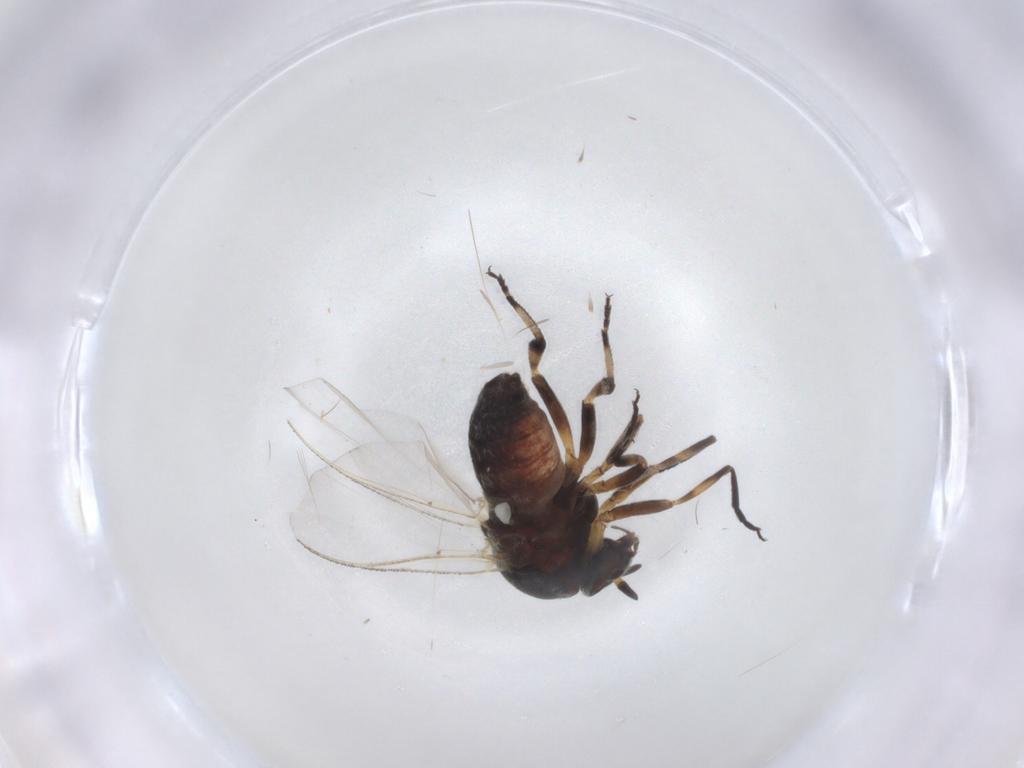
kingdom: Animalia
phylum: Arthropoda
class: Insecta
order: Diptera
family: Phoridae
